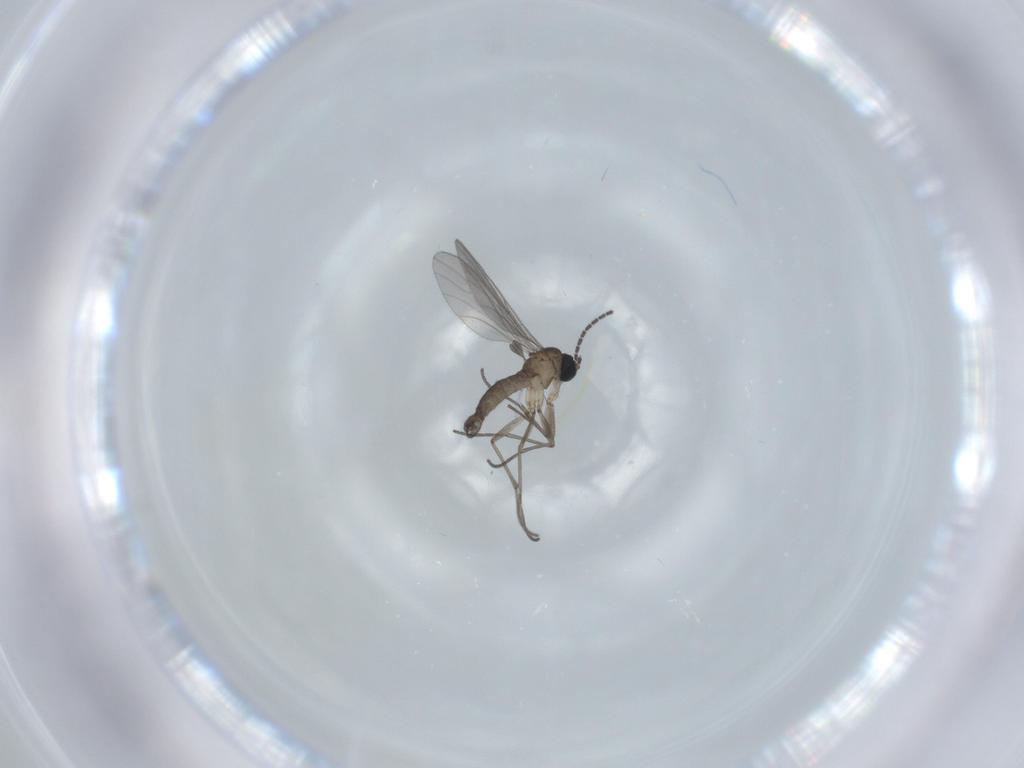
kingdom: Animalia
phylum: Arthropoda
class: Insecta
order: Diptera
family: Sciaridae
